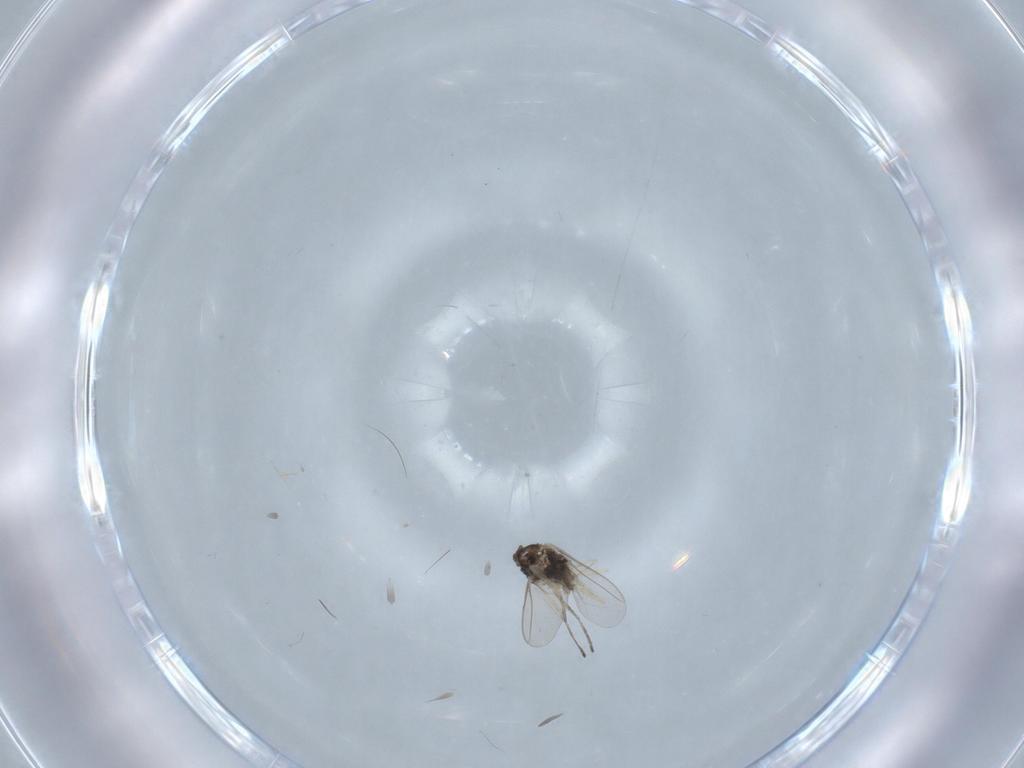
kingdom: Animalia
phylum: Arthropoda
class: Insecta
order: Diptera
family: Cecidomyiidae
